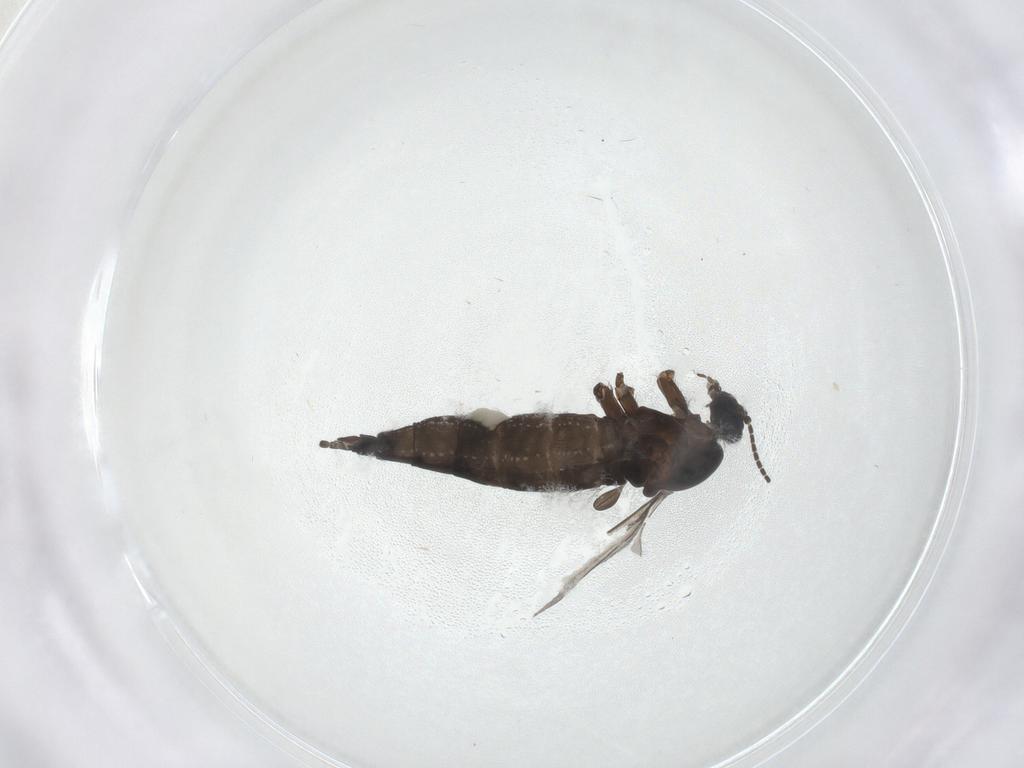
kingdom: Animalia
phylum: Arthropoda
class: Insecta
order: Diptera
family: Sciaridae
